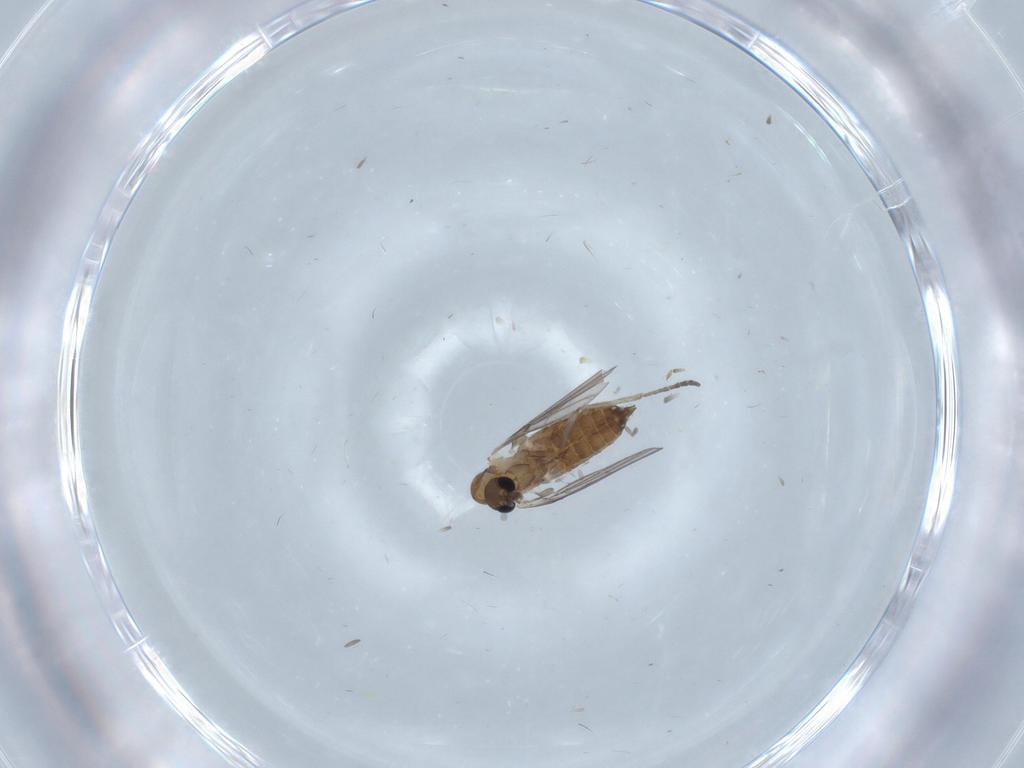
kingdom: Animalia
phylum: Arthropoda
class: Insecta
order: Diptera
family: Psychodidae
